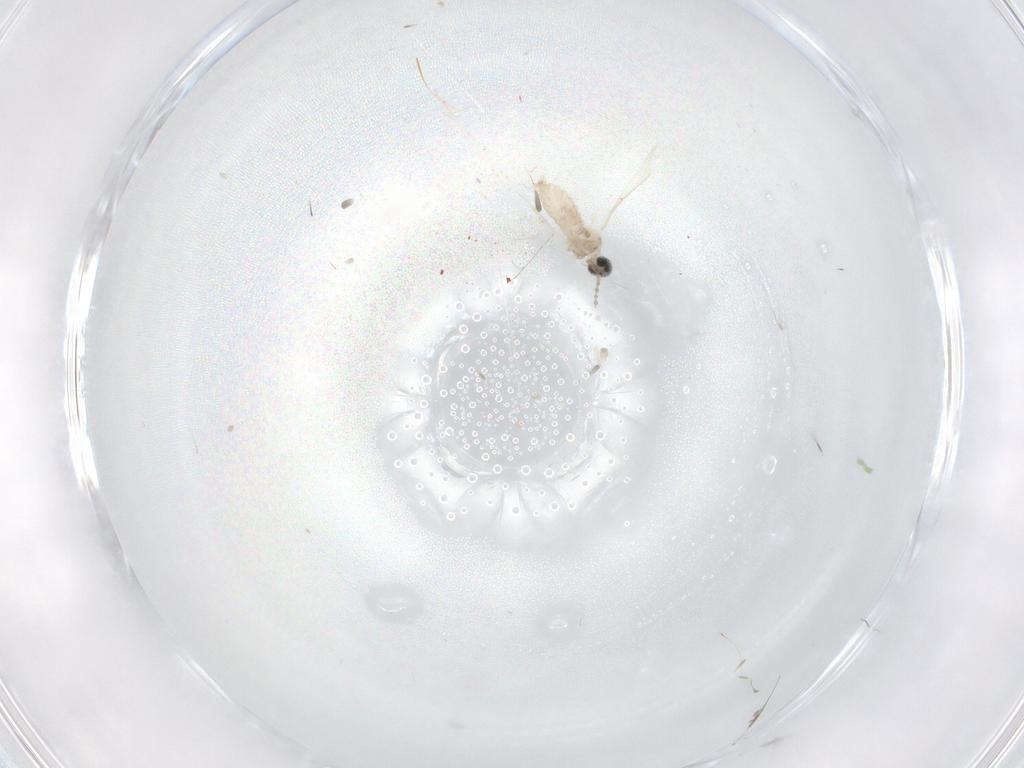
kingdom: Animalia
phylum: Arthropoda
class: Insecta
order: Diptera
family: Cecidomyiidae
